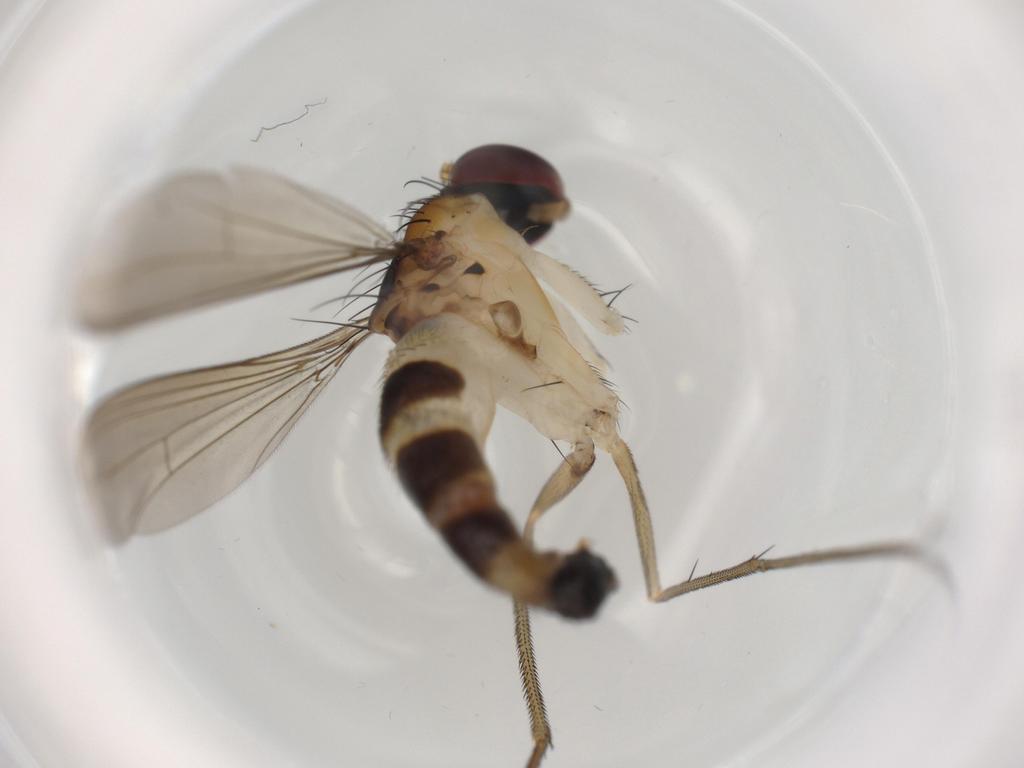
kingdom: Animalia
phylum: Arthropoda
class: Insecta
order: Diptera
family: Dolichopodidae
